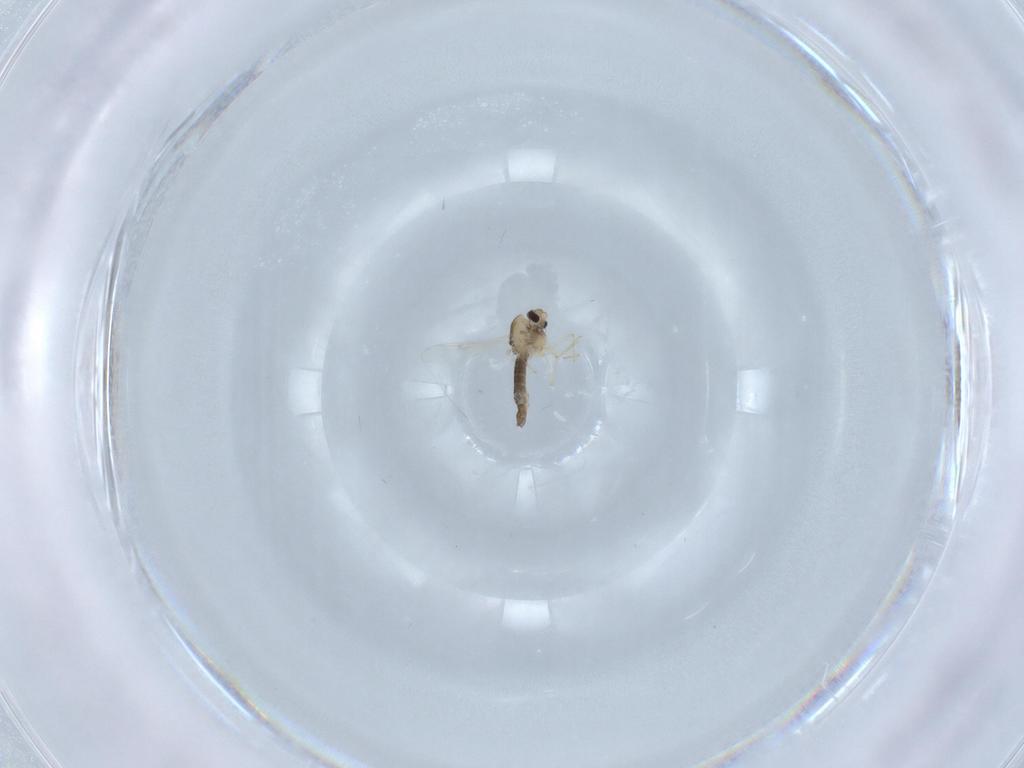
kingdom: Animalia
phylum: Arthropoda
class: Insecta
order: Diptera
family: Chironomidae
